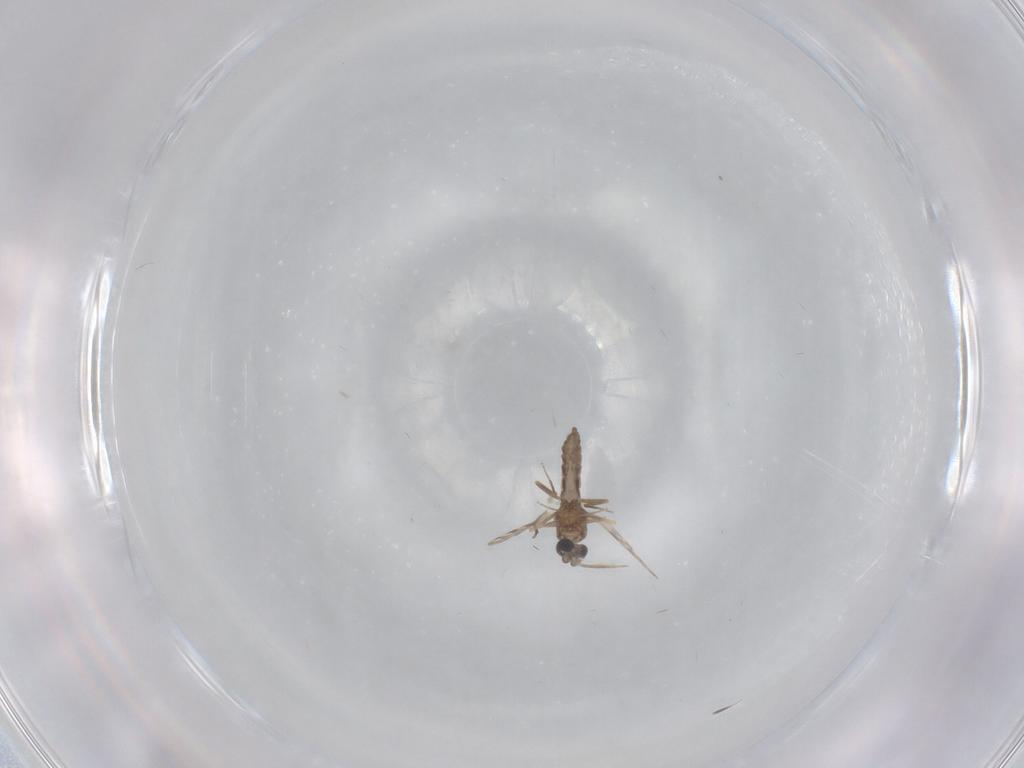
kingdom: Animalia
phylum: Arthropoda
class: Insecta
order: Diptera
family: Ceratopogonidae
